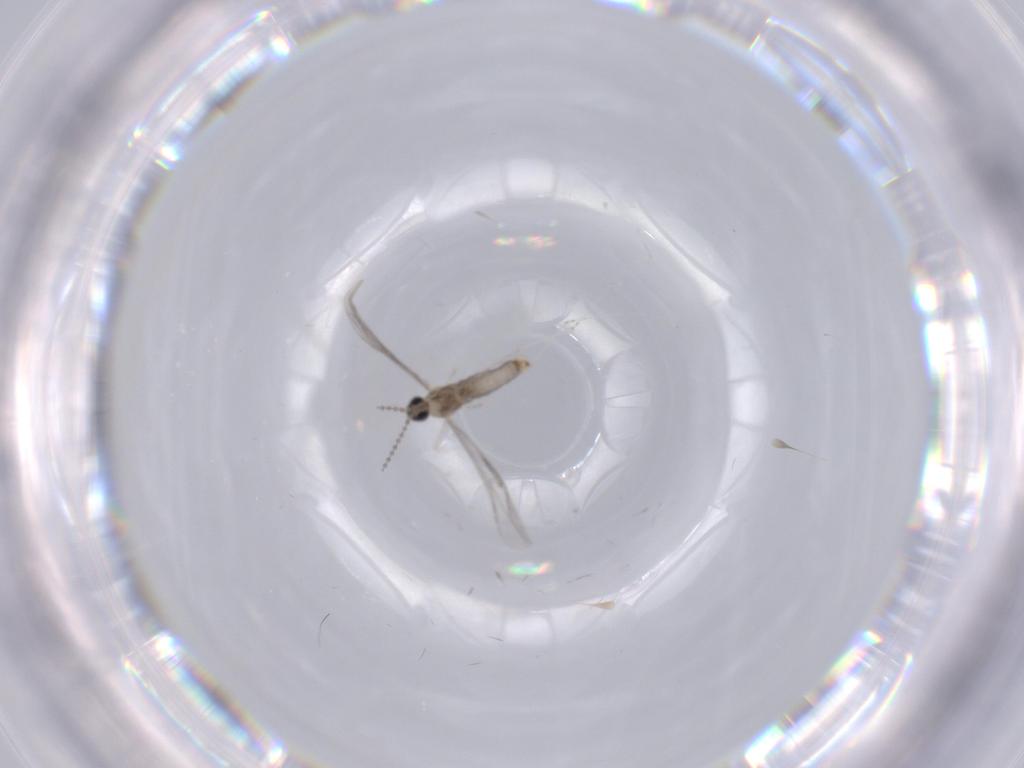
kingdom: Animalia
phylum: Arthropoda
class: Insecta
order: Diptera
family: Cecidomyiidae
